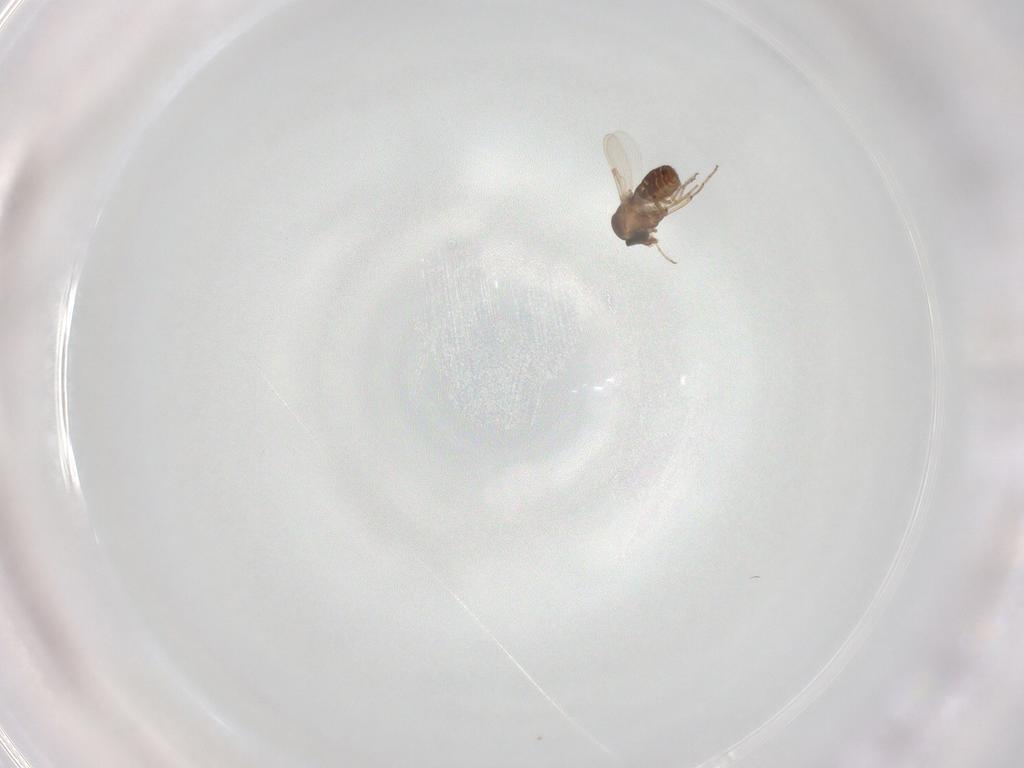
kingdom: Animalia
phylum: Arthropoda
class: Insecta
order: Diptera
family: Ceratopogonidae
